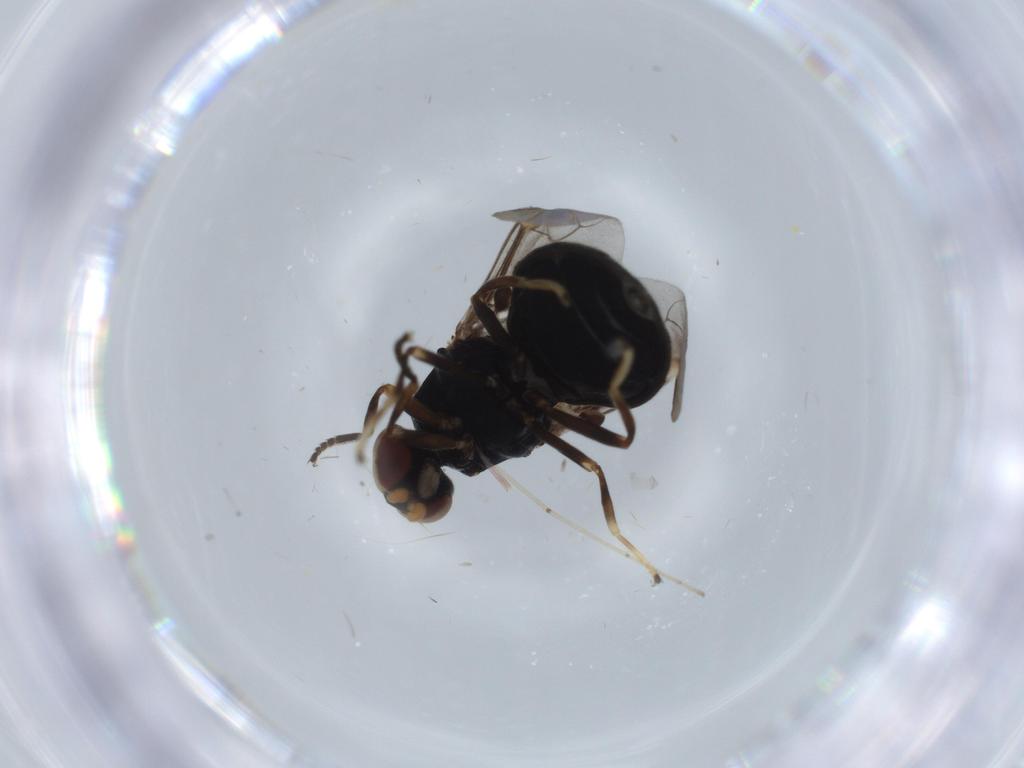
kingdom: Animalia
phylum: Arthropoda
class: Insecta
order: Diptera
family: Stratiomyidae
